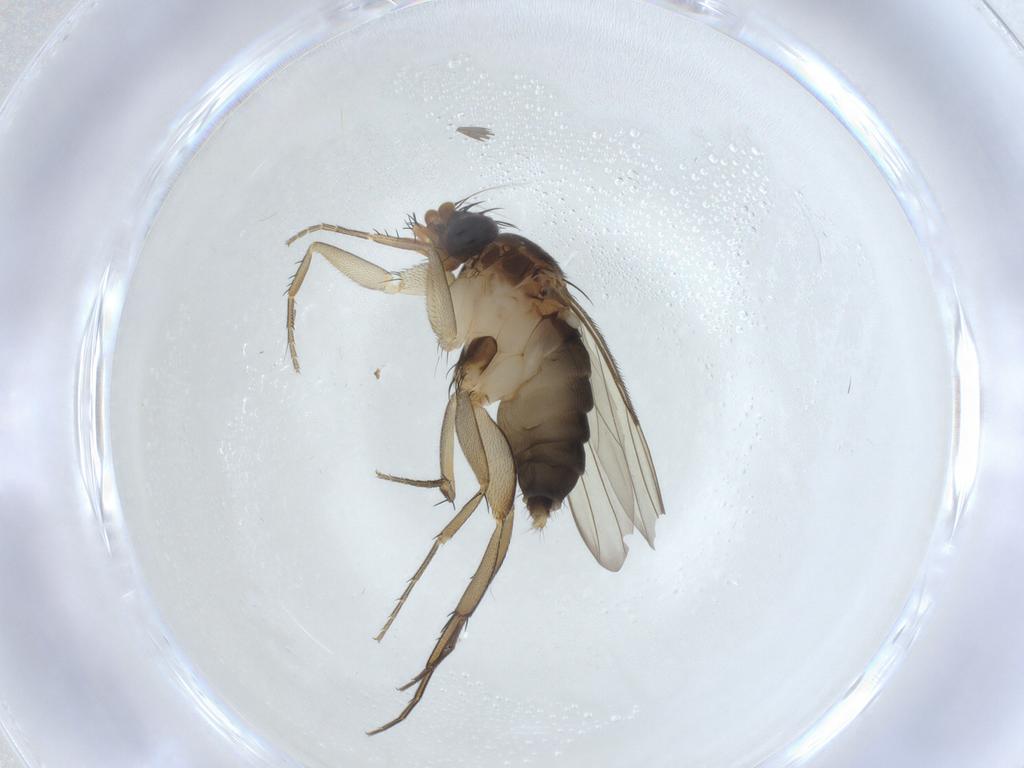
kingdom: Animalia
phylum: Arthropoda
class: Insecta
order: Diptera
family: Phoridae
